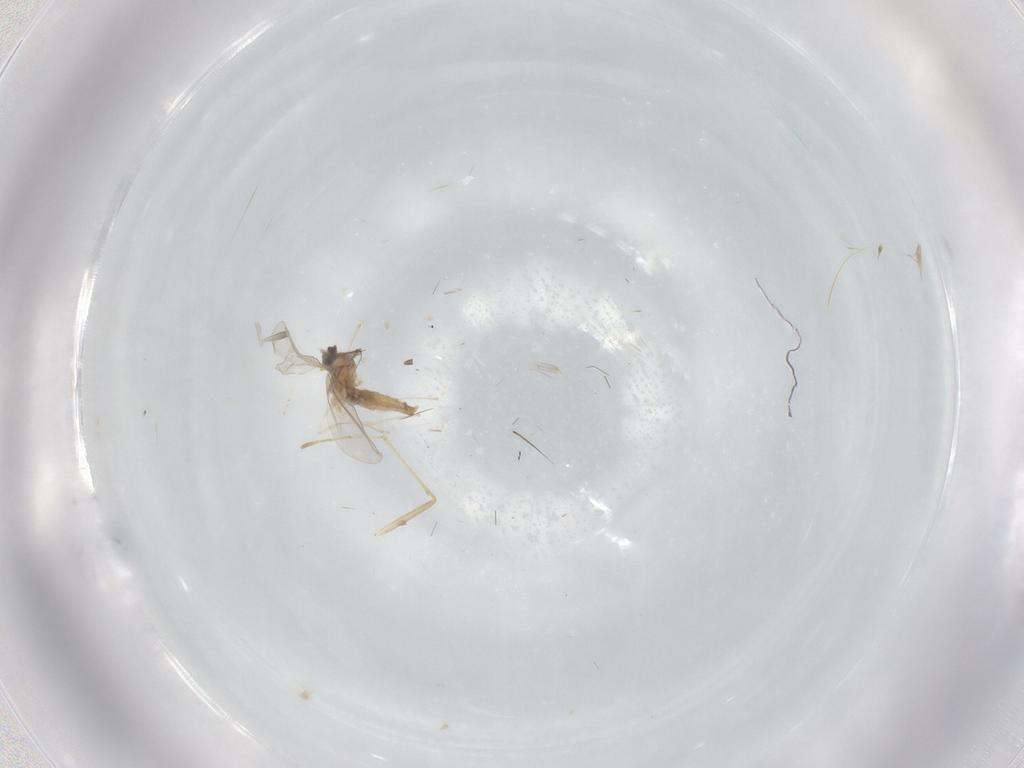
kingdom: Animalia
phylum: Arthropoda
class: Insecta
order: Diptera
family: Cecidomyiidae
